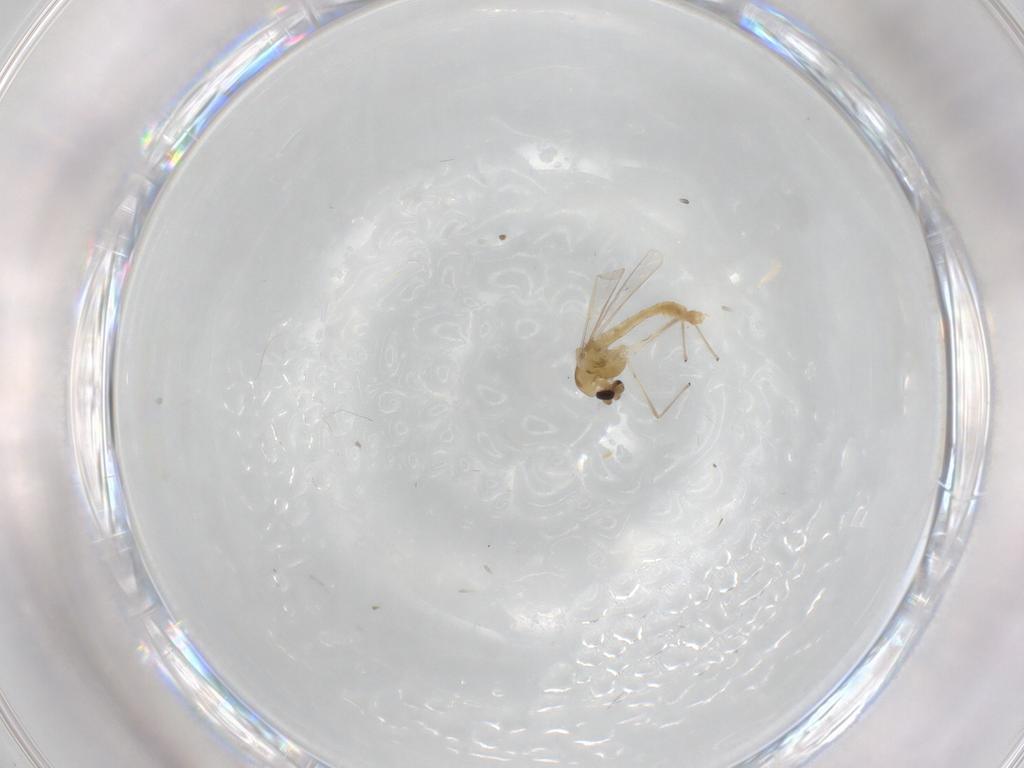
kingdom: Animalia
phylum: Arthropoda
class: Insecta
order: Diptera
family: Chironomidae
